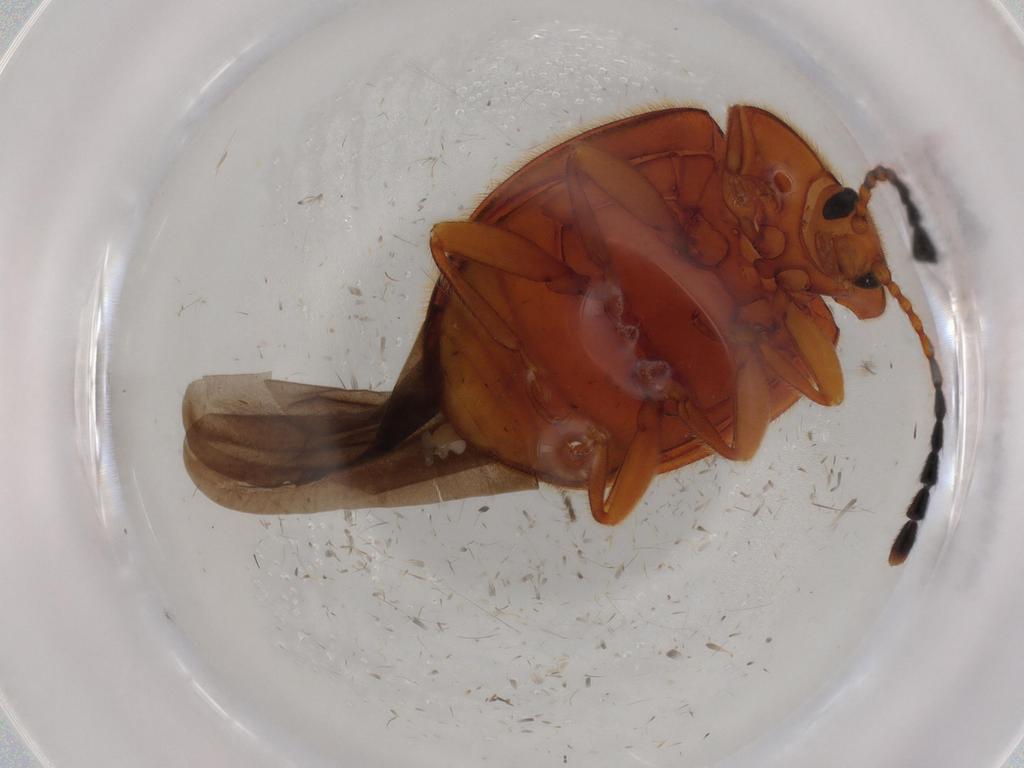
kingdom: Animalia
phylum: Arthropoda
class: Insecta
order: Coleoptera
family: Endomychidae
